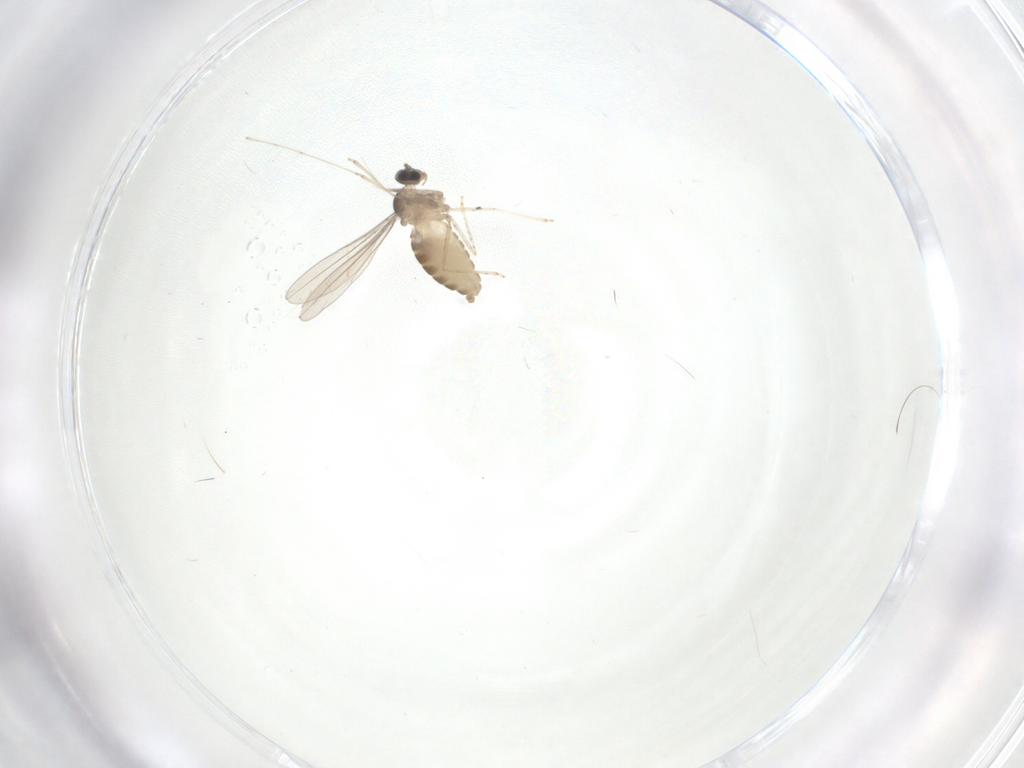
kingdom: Animalia
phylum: Arthropoda
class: Insecta
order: Diptera
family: Cecidomyiidae
